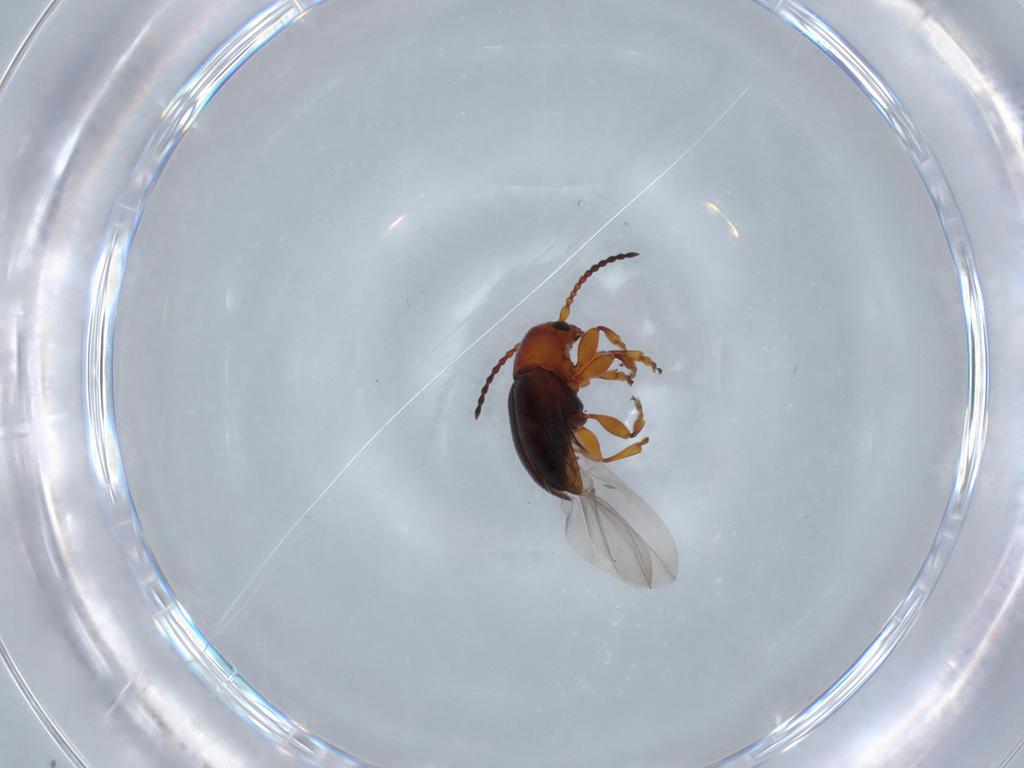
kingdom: Animalia
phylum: Arthropoda
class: Insecta
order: Coleoptera
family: Chrysomelidae
